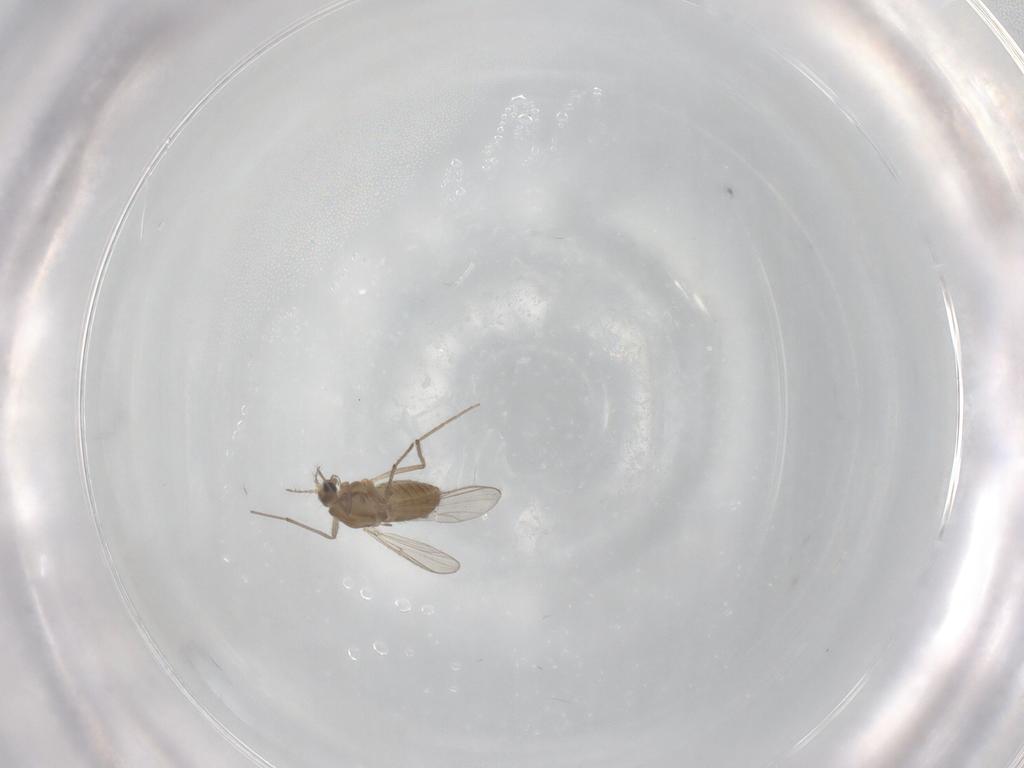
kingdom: Animalia
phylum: Arthropoda
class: Insecta
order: Diptera
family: Chironomidae
